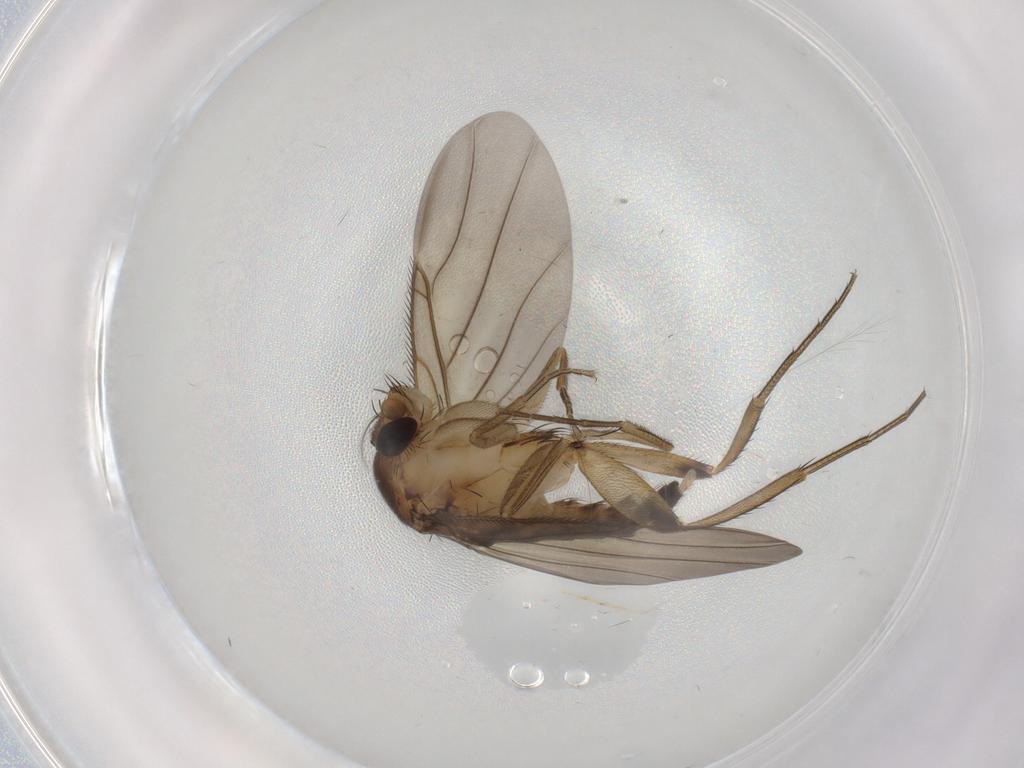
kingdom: Animalia
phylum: Arthropoda
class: Insecta
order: Diptera
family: Phoridae
